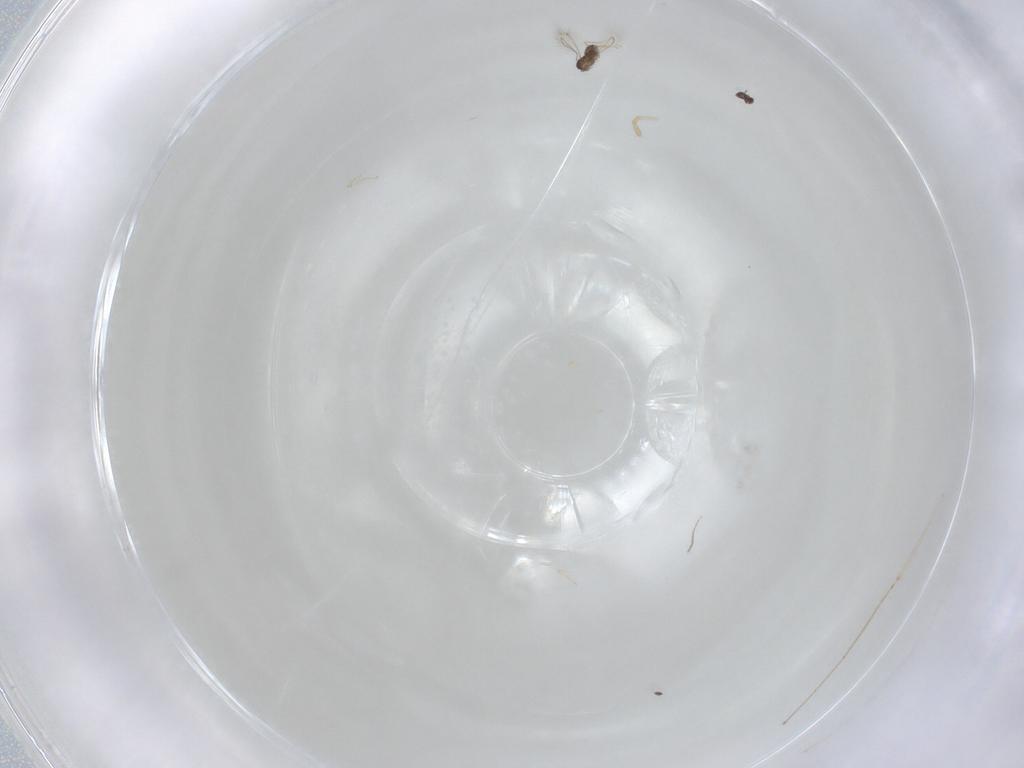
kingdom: Animalia
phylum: Arthropoda
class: Insecta
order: Hymenoptera
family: Mymaridae
